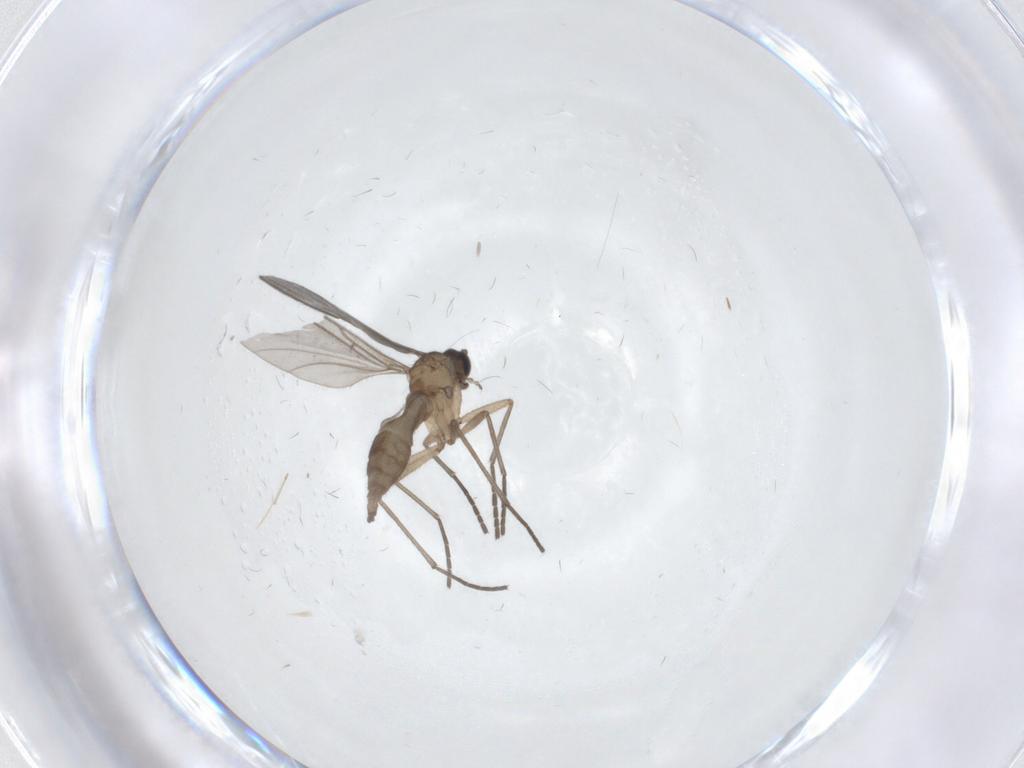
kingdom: Animalia
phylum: Arthropoda
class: Insecta
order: Diptera
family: Sciaridae
